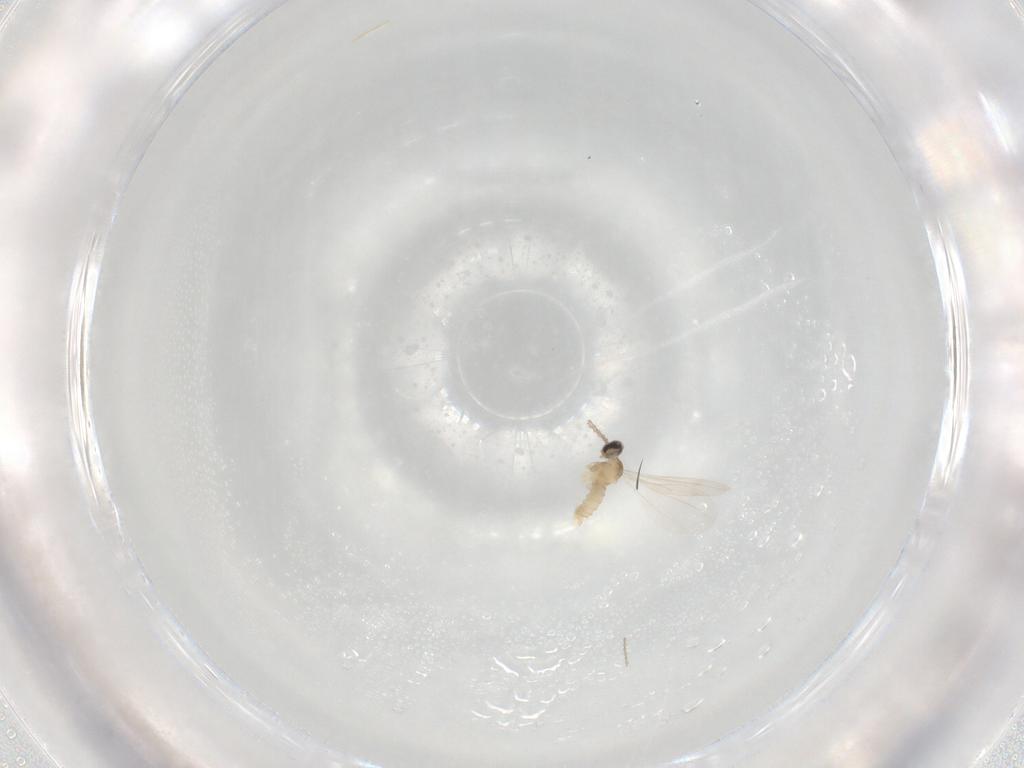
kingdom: Animalia
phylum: Arthropoda
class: Insecta
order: Diptera
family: Cecidomyiidae
